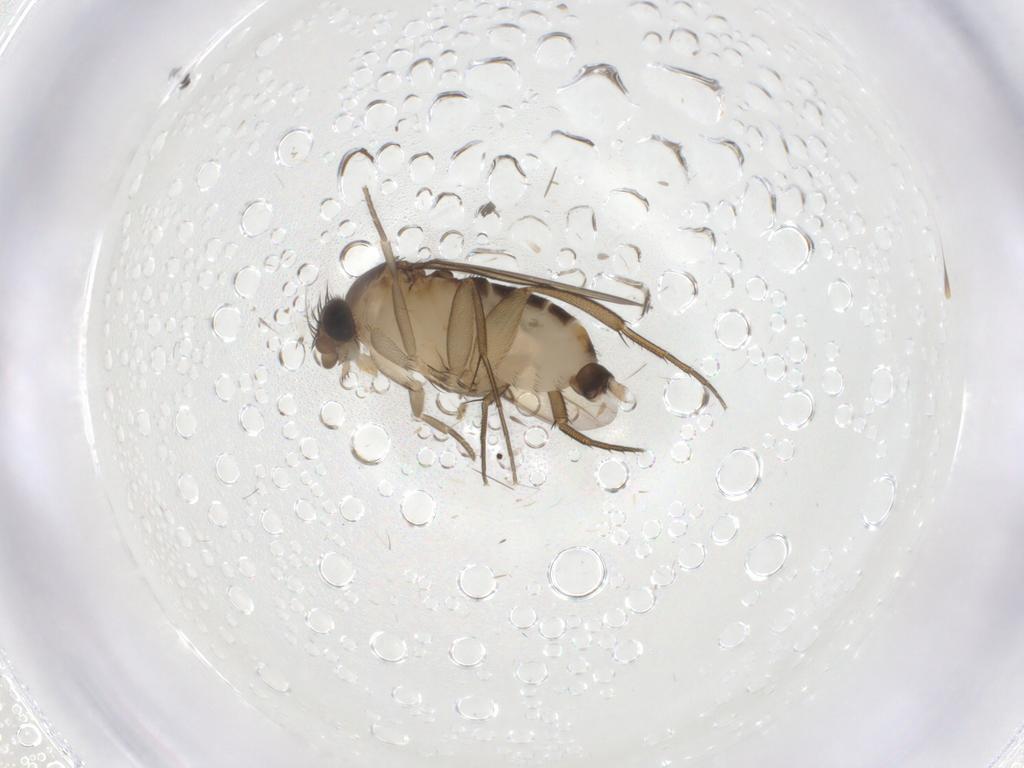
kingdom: Animalia
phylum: Arthropoda
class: Insecta
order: Diptera
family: Phoridae
